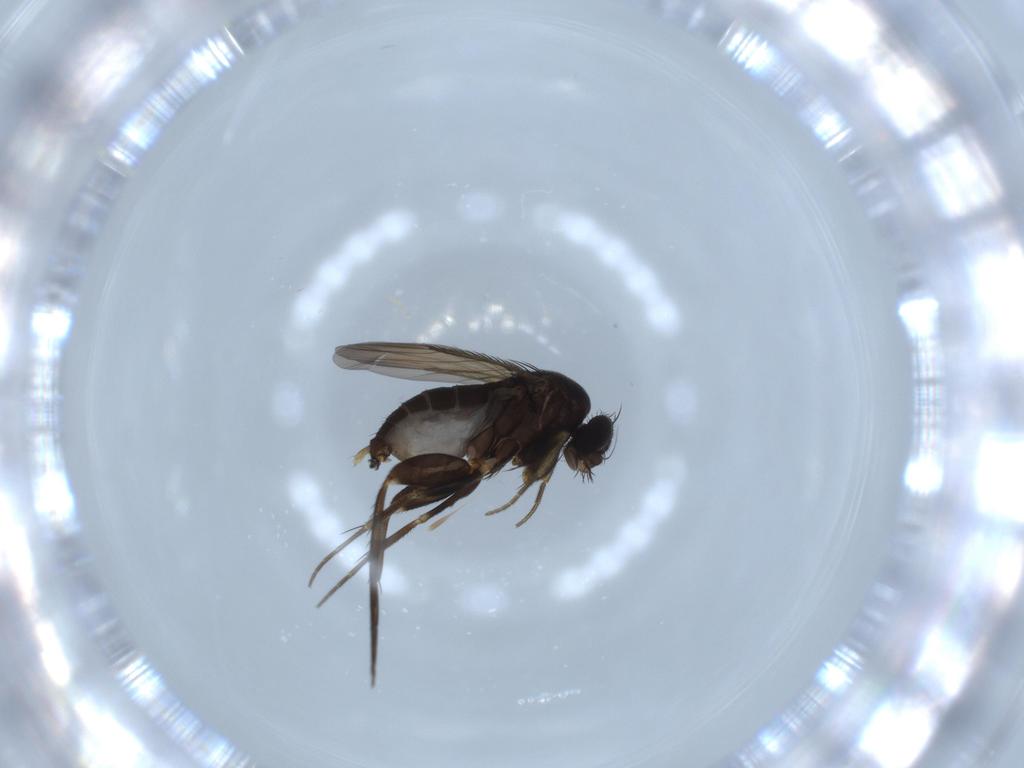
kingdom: Animalia
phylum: Arthropoda
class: Insecta
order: Diptera
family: Phoridae
